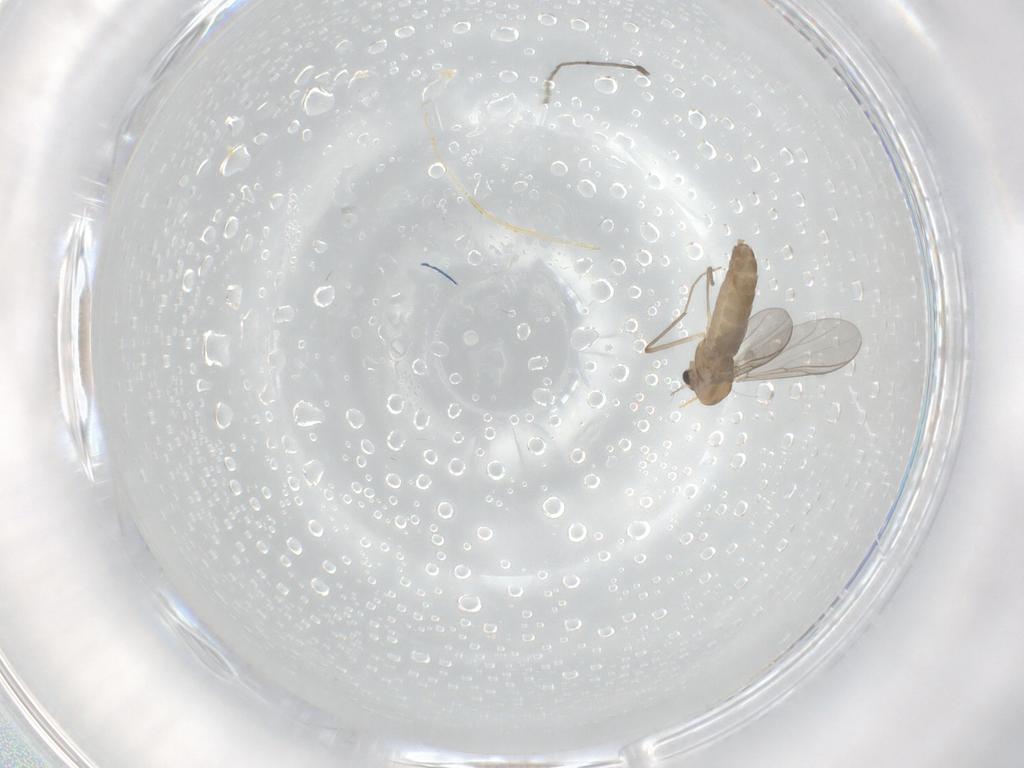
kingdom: Animalia
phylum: Arthropoda
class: Insecta
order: Diptera
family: Chironomidae
